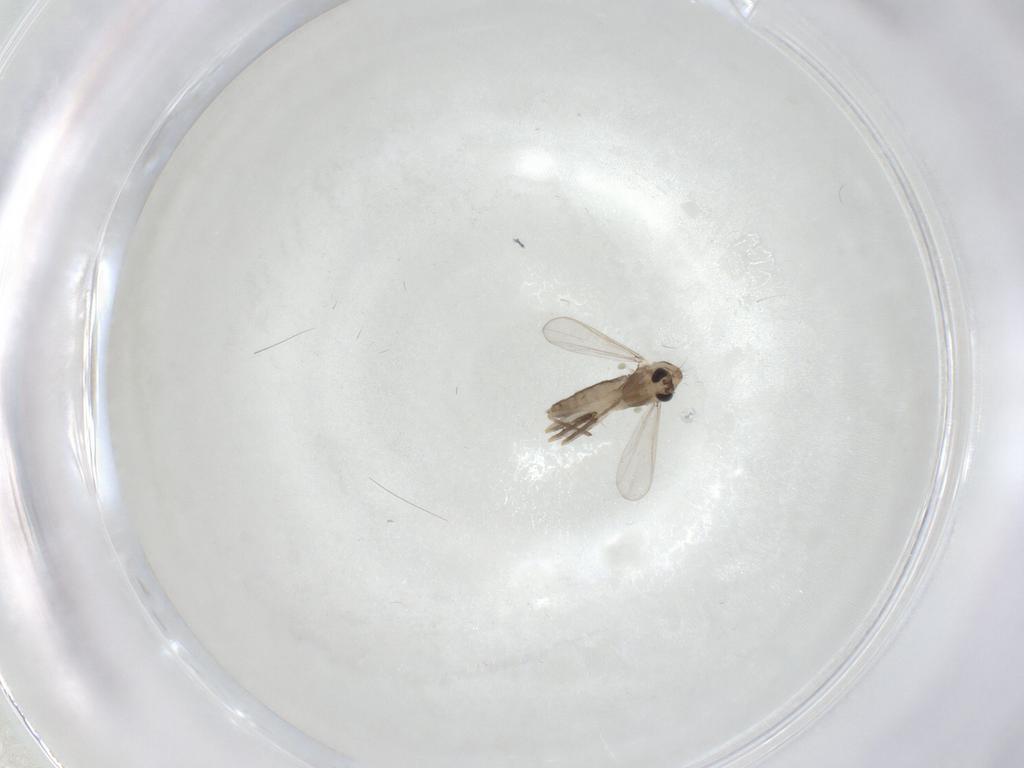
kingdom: Animalia
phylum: Arthropoda
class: Insecta
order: Diptera
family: Chironomidae
